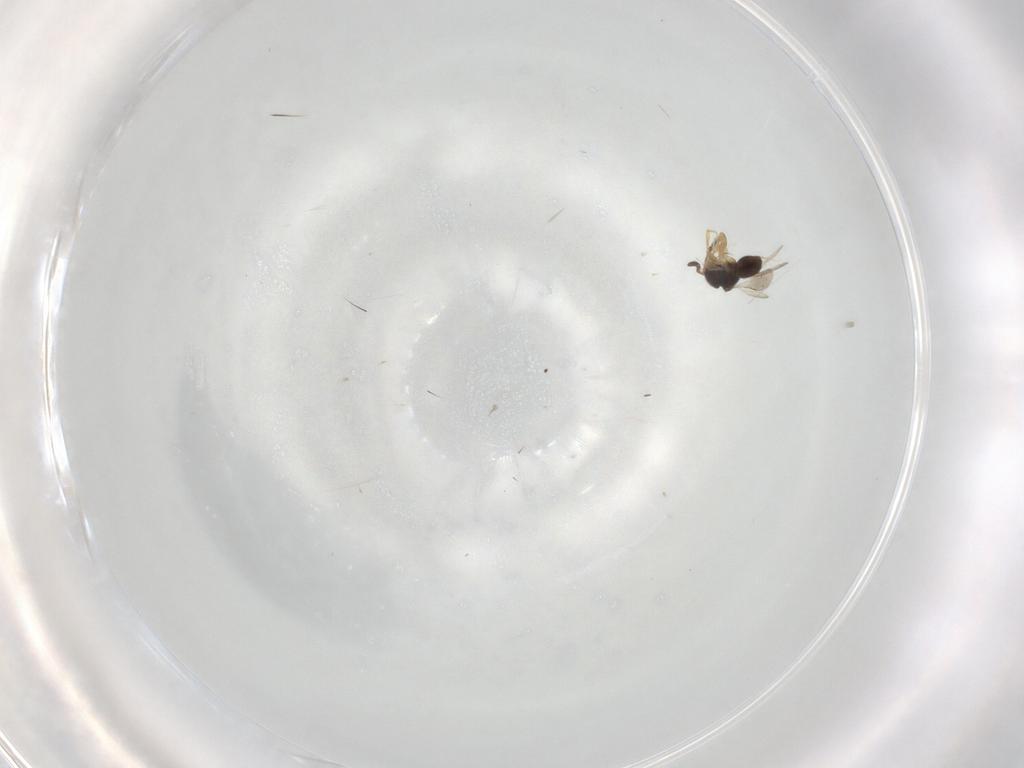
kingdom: Animalia
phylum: Arthropoda
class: Insecta
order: Hymenoptera
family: Ceraphronidae
